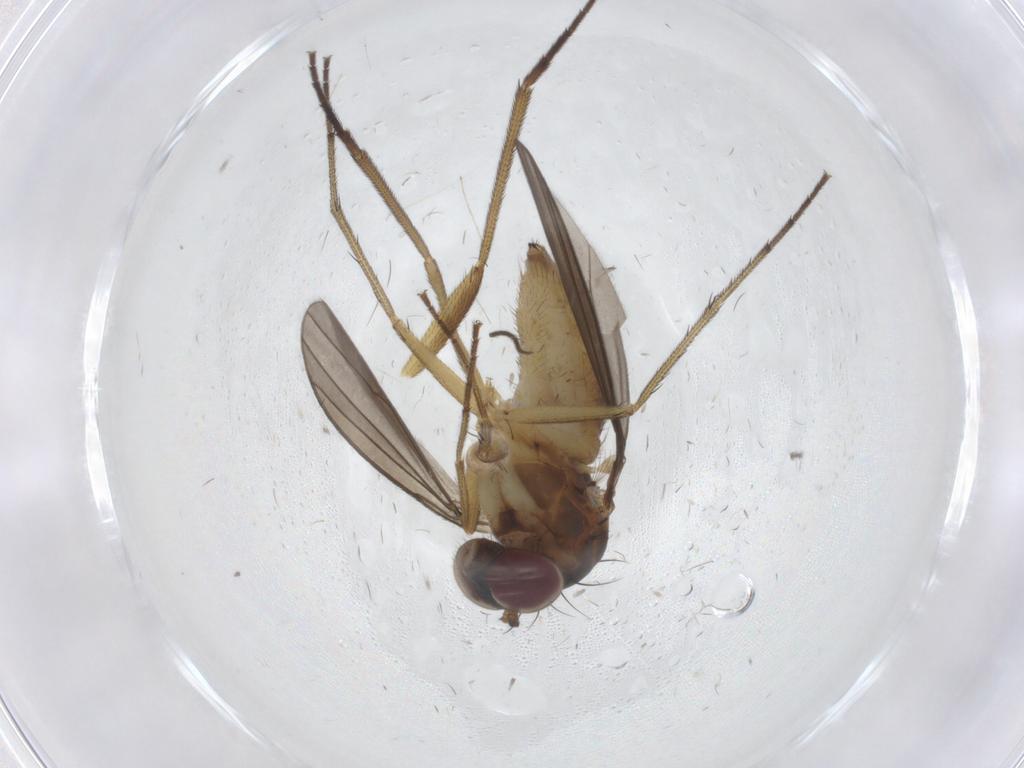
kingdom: Animalia
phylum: Arthropoda
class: Insecta
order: Diptera
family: Dolichopodidae
